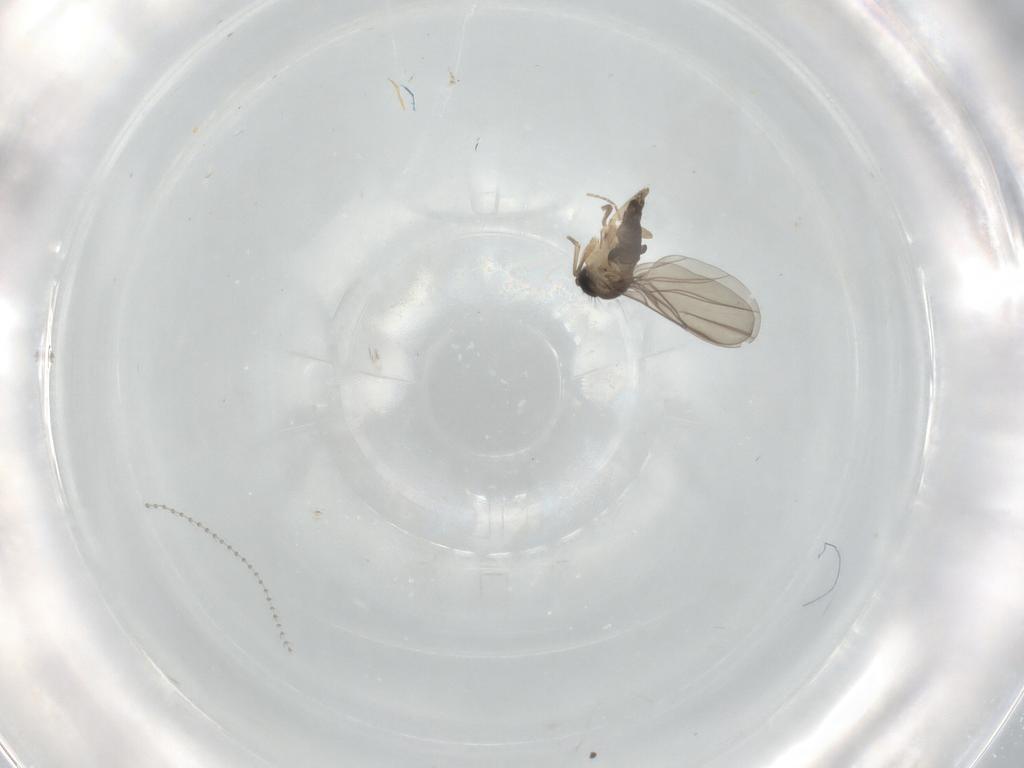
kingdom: Animalia
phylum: Arthropoda
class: Insecta
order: Diptera
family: Phoridae
